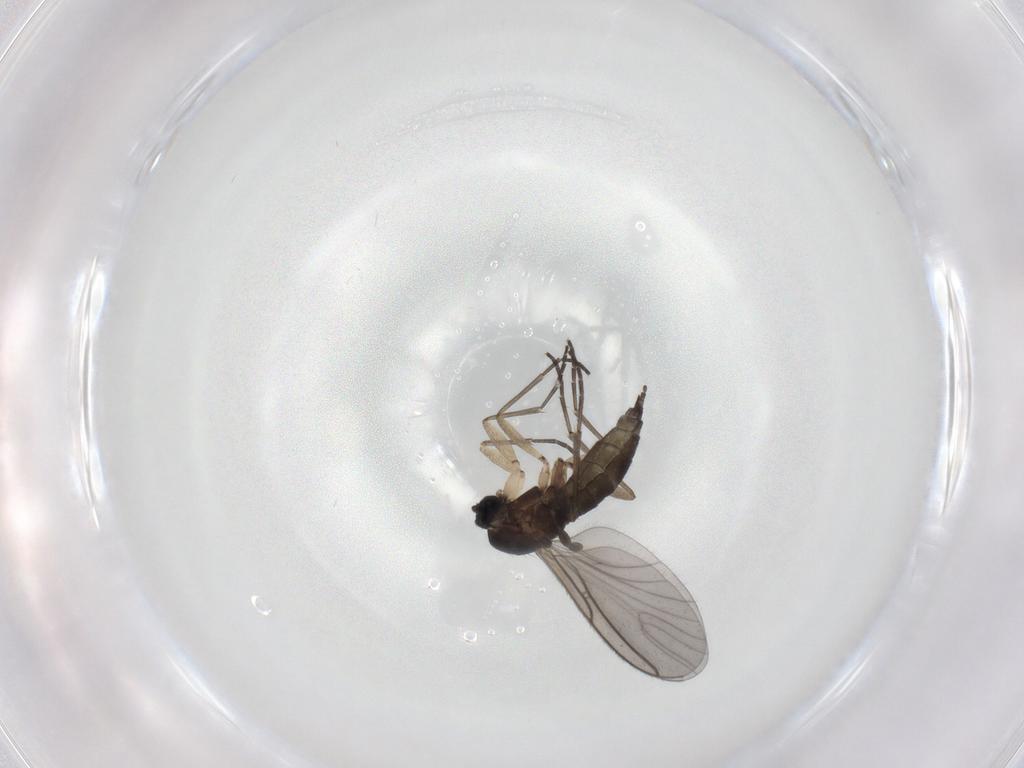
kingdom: Animalia
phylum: Arthropoda
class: Insecta
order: Diptera
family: Sciaridae
